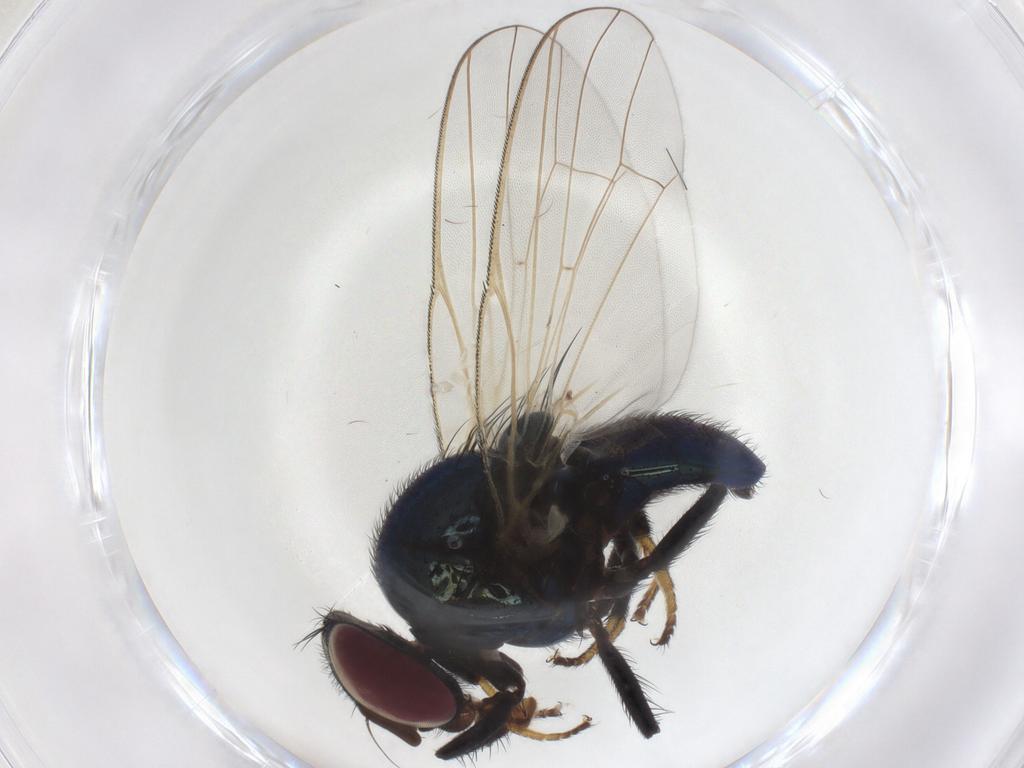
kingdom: Animalia
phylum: Arthropoda
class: Insecta
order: Diptera
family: Lonchaeidae
